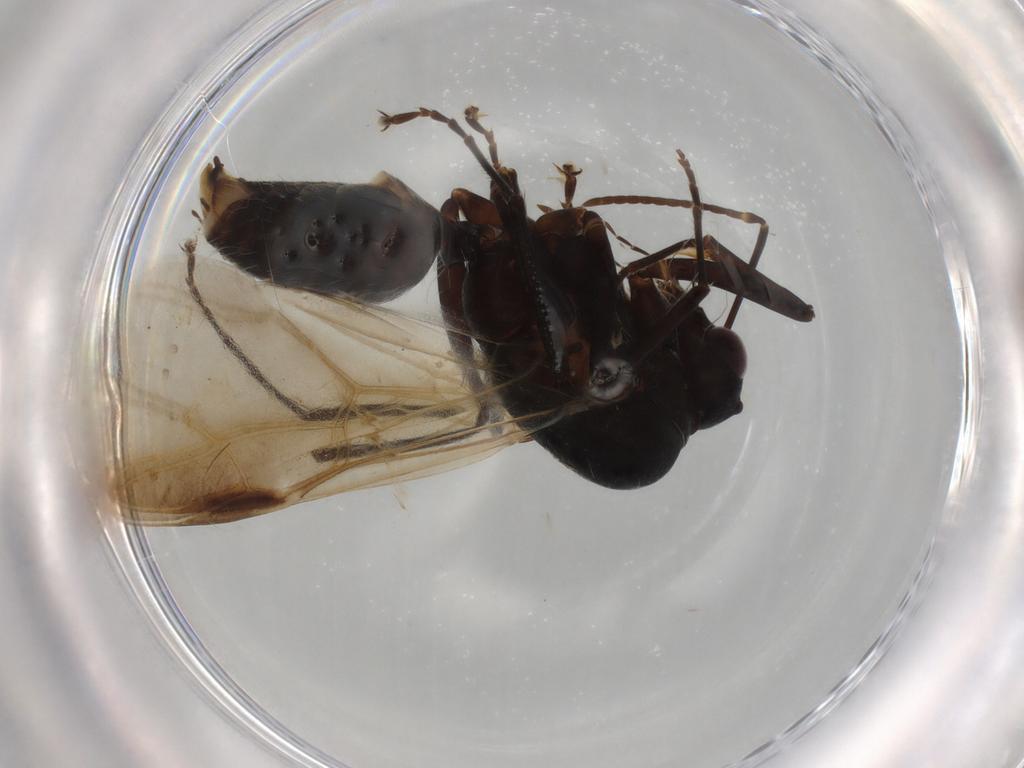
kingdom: Animalia
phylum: Arthropoda
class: Insecta
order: Hymenoptera
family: Formicidae
